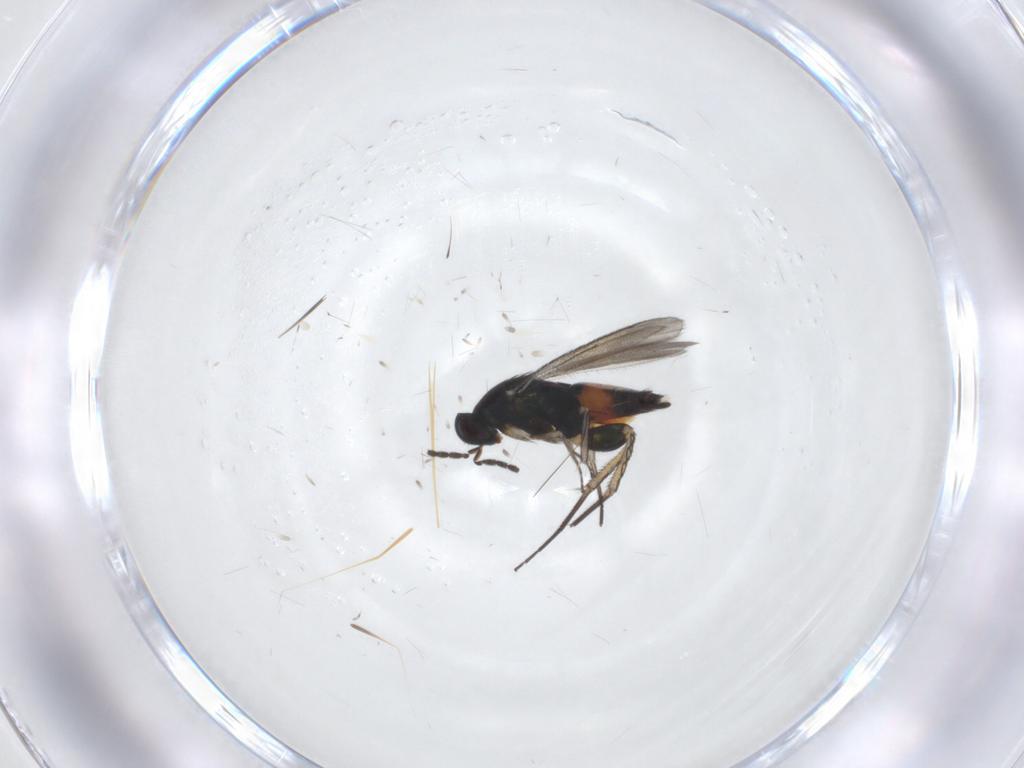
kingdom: Animalia
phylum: Arthropoda
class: Insecta
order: Hymenoptera
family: Eulophidae
